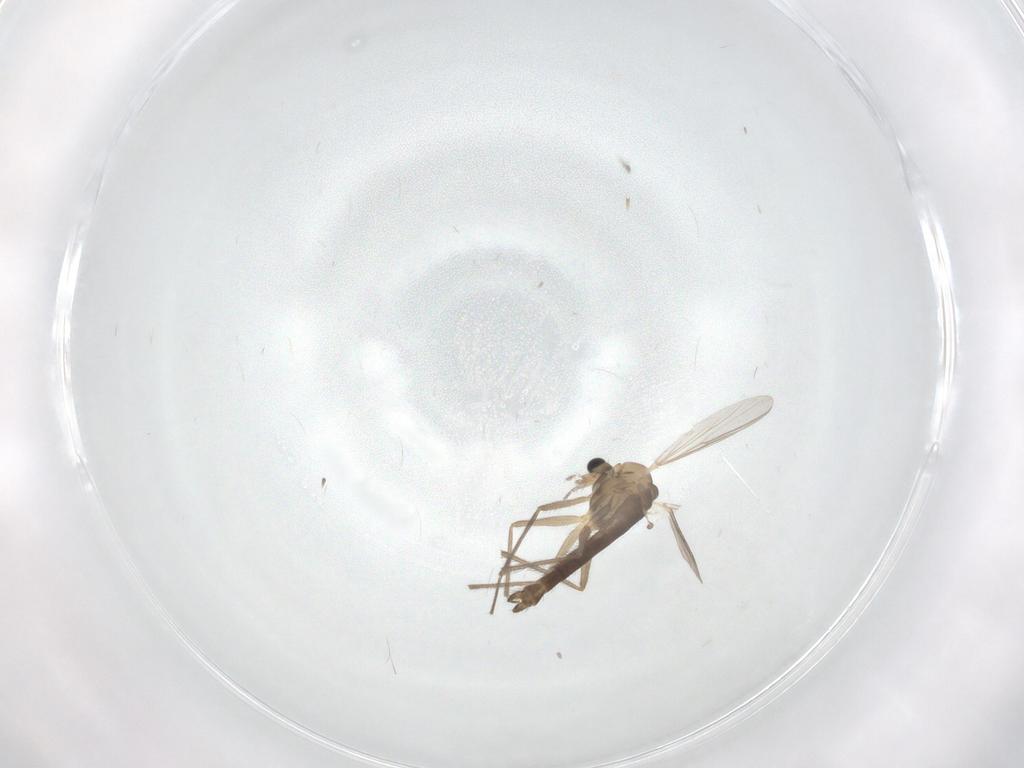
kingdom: Animalia
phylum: Arthropoda
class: Insecta
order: Diptera
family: Chironomidae
